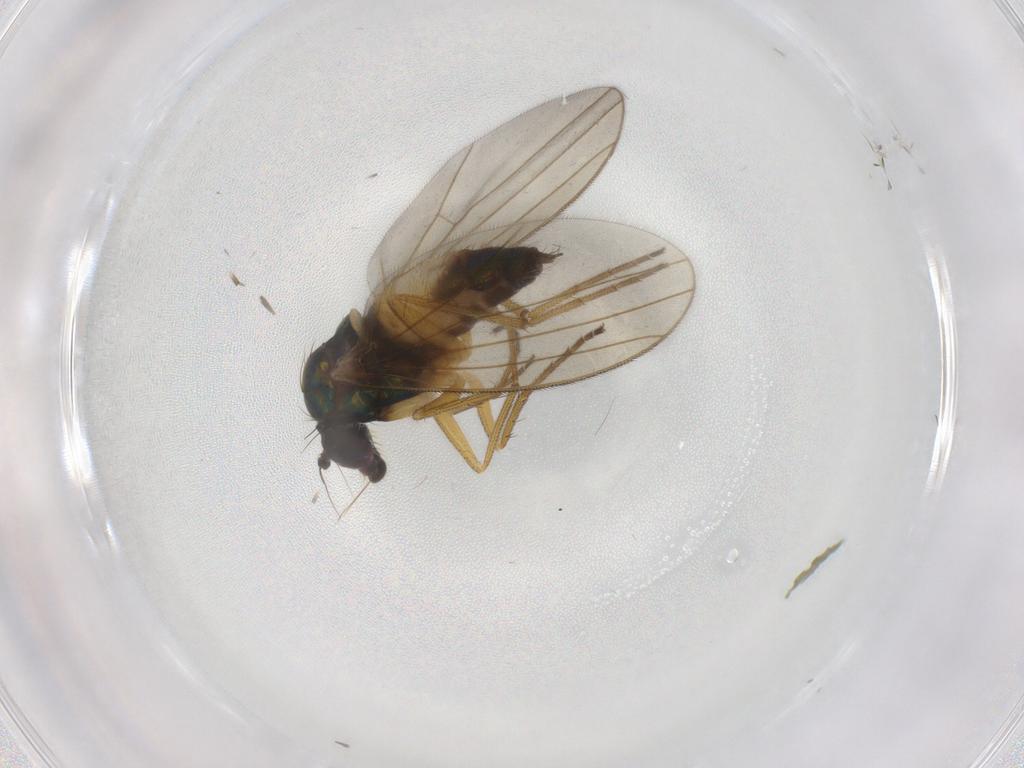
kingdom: Animalia
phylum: Arthropoda
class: Insecta
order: Diptera
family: Dolichopodidae
